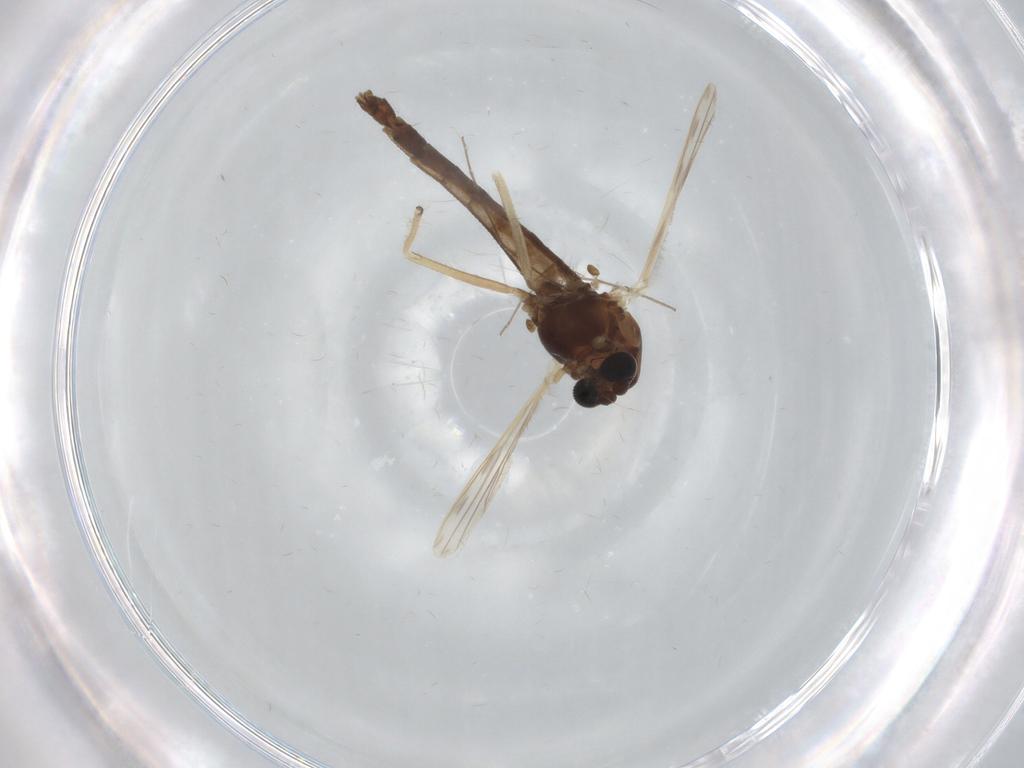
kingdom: Animalia
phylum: Arthropoda
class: Insecta
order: Diptera
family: Chironomidae
